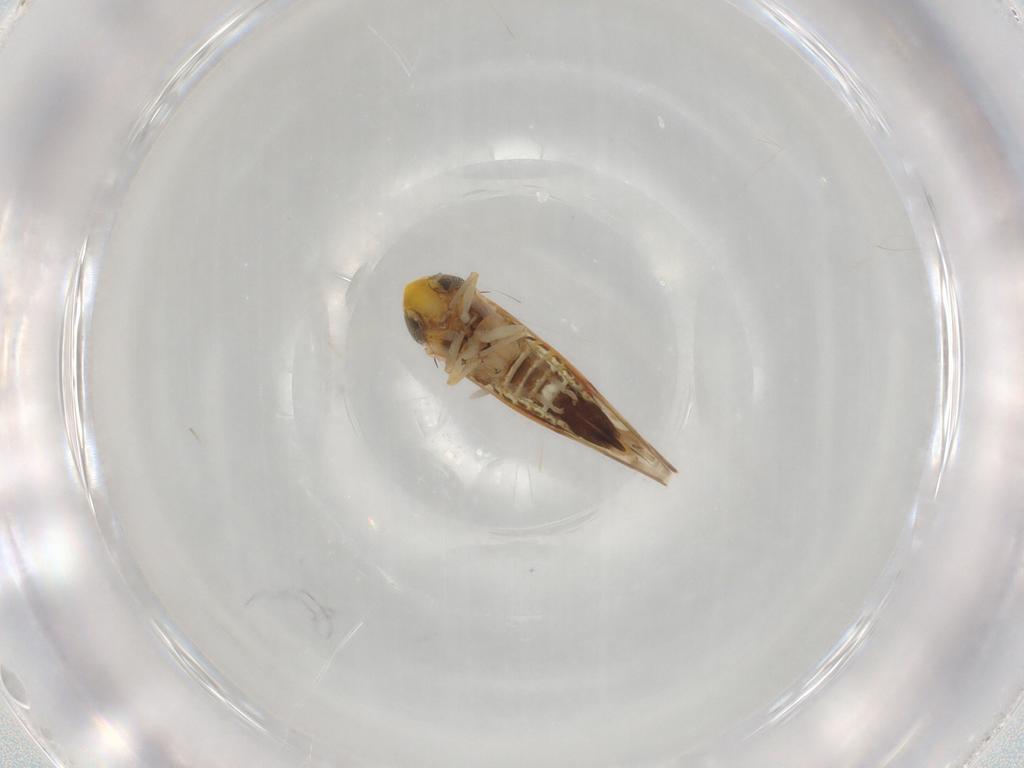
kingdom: Animalia
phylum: Arthropoda
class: Insecta
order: Hemiptera
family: Cicadellidae
